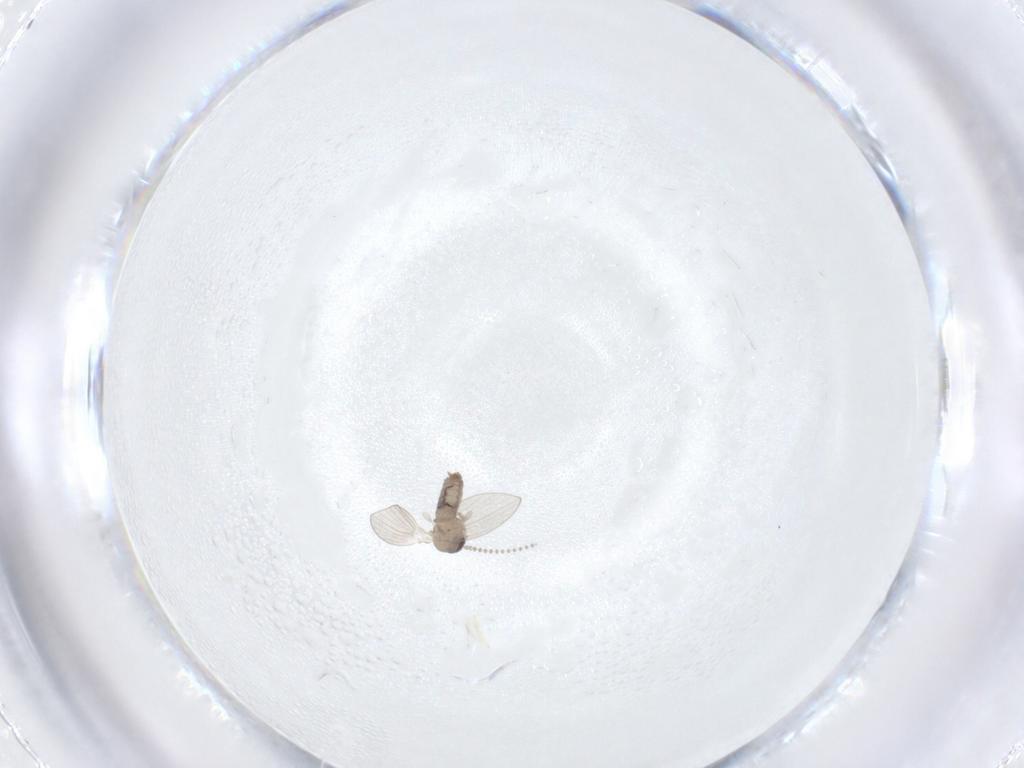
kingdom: Animalia
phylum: Arthropoda
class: Insecta
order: Diptera
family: Psychodidae
